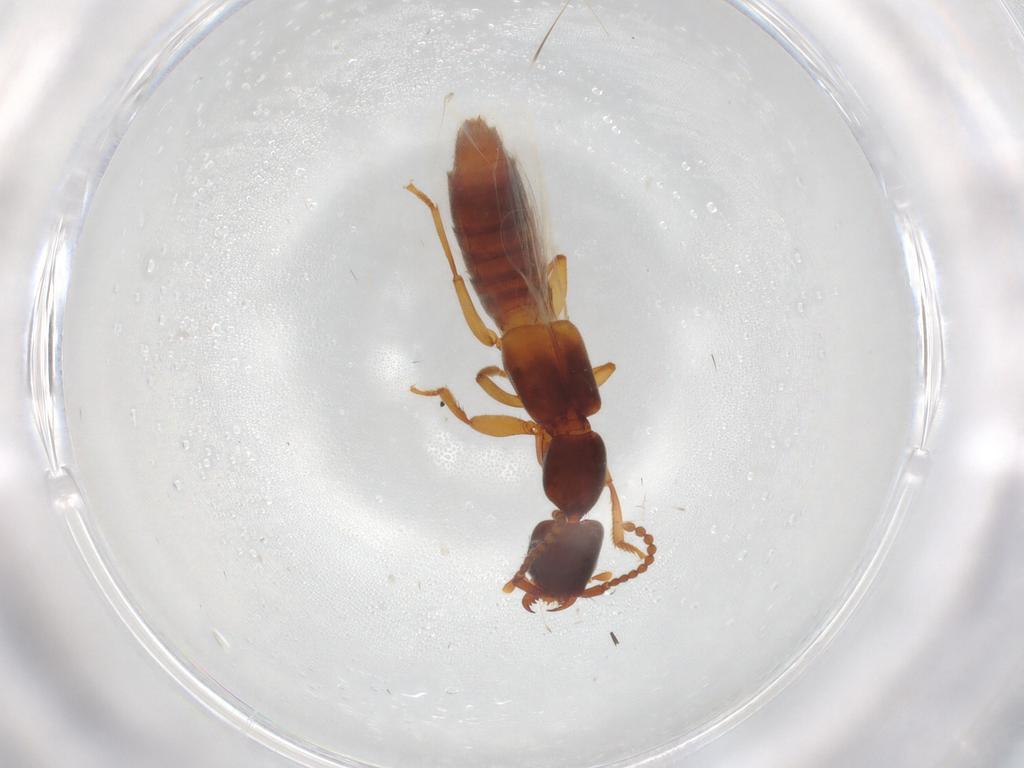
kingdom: Animalia
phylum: Arthropoda
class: Insecta
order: Coleoptera
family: Staphylinidae
